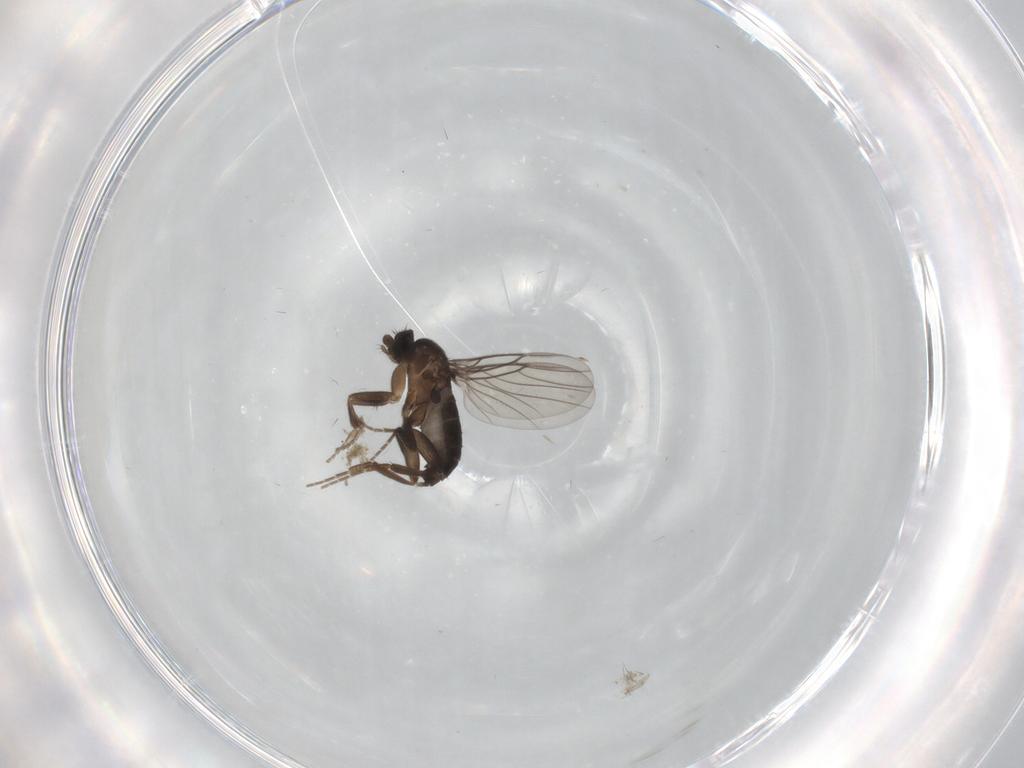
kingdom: Animalia
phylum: Arthropoda
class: Insecta
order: Diptera
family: Phoridae
